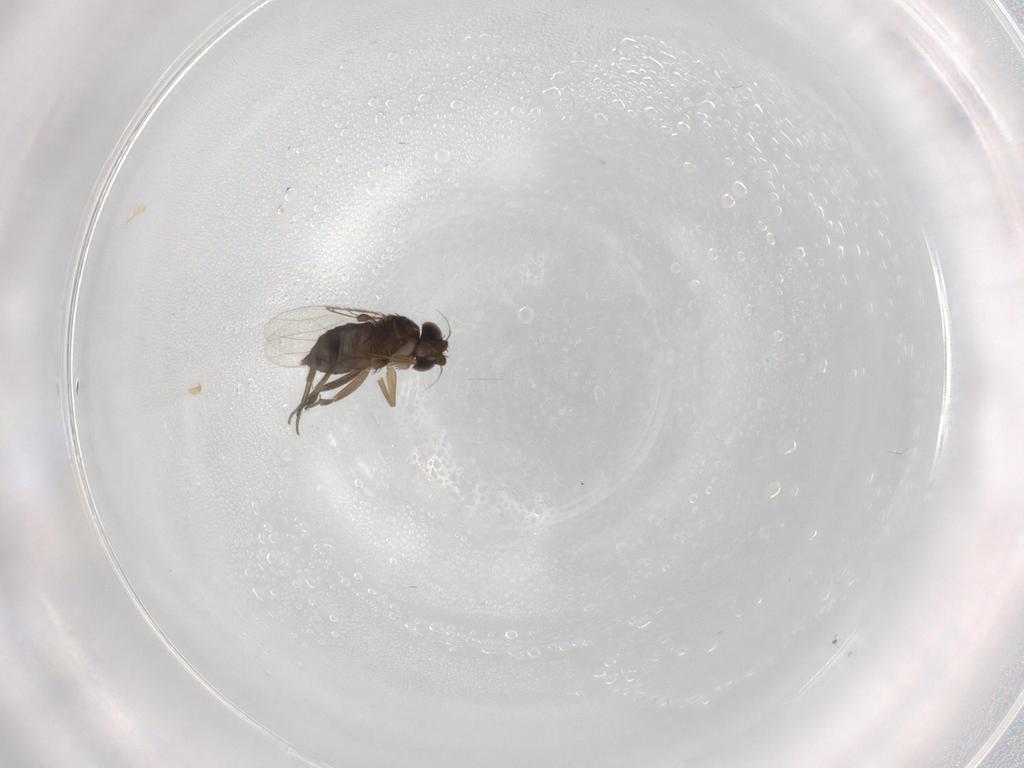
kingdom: Animalia
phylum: Arthropoda
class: Insecta
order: Diptera
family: Phoridae
